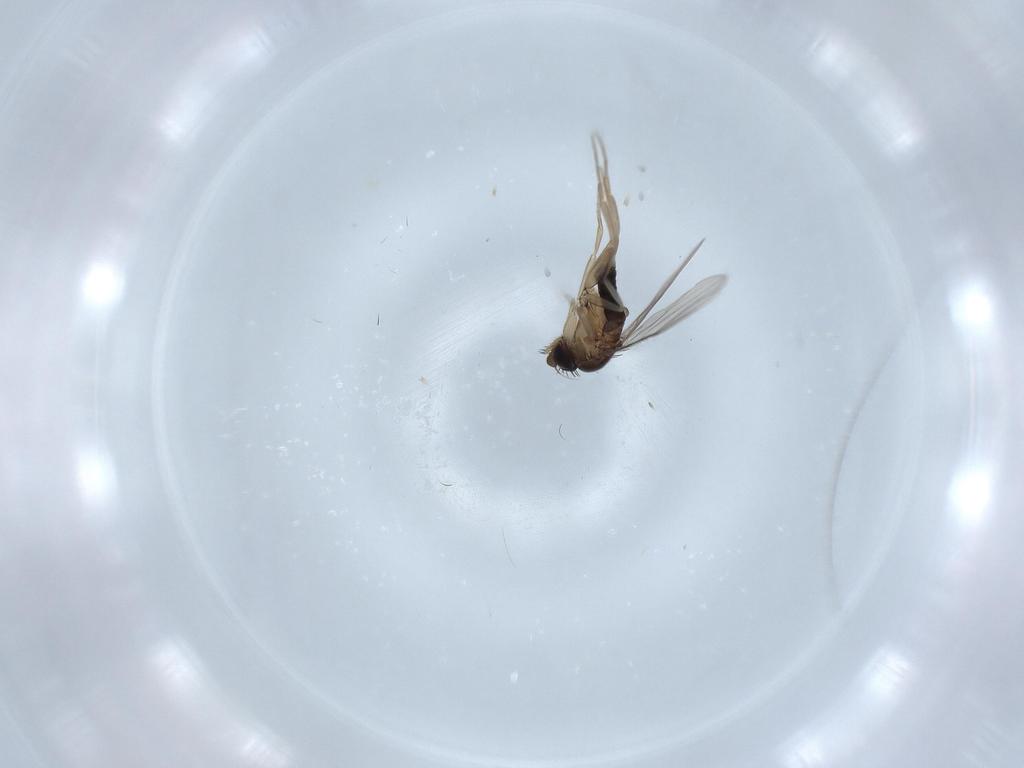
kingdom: Animalia
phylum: Arthropoda
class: Insecta
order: Diptera
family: Phoridae
